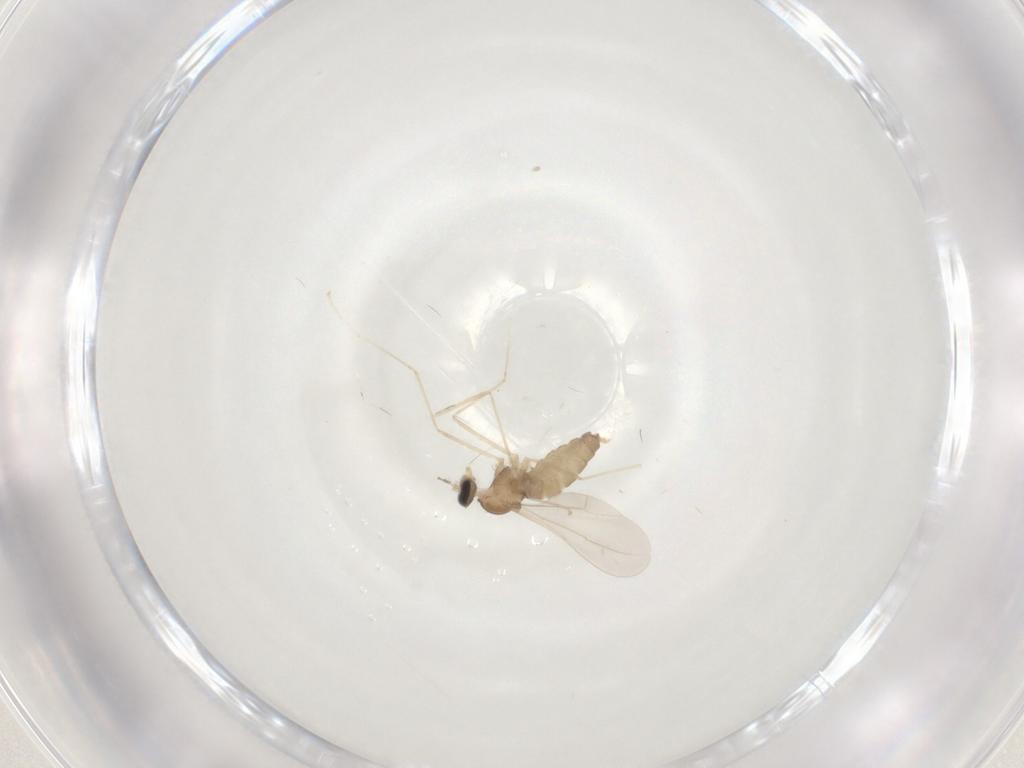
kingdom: Animalia
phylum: Arthropoda
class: Insecta
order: Diptera
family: Cecidomyiidae
